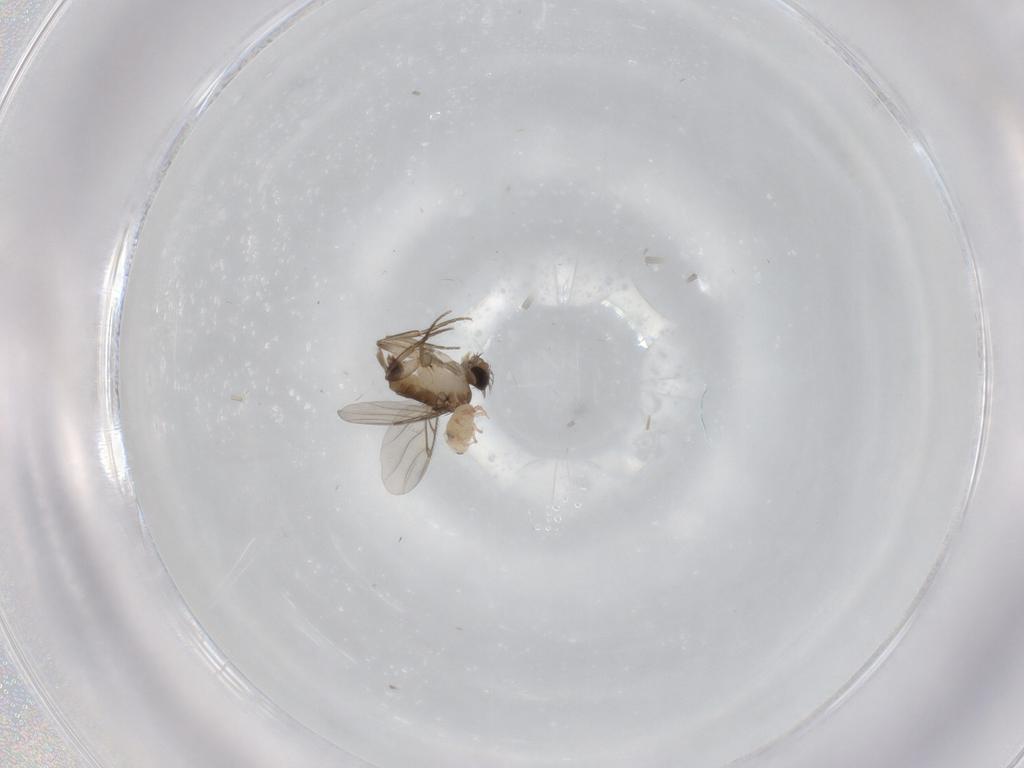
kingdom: Animalia
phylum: Arthropoda
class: Insecta
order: Diptera
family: Phoridae
